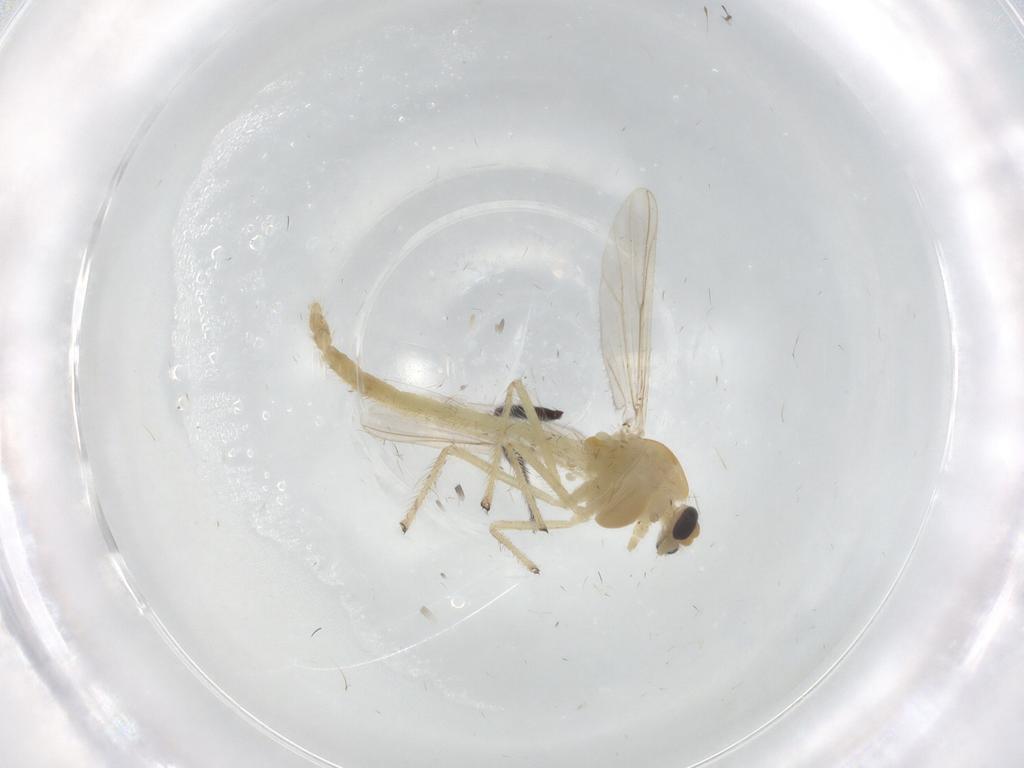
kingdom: Animalia
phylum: Arthropoda
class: Insecta
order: Diptera
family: Chironomidae
